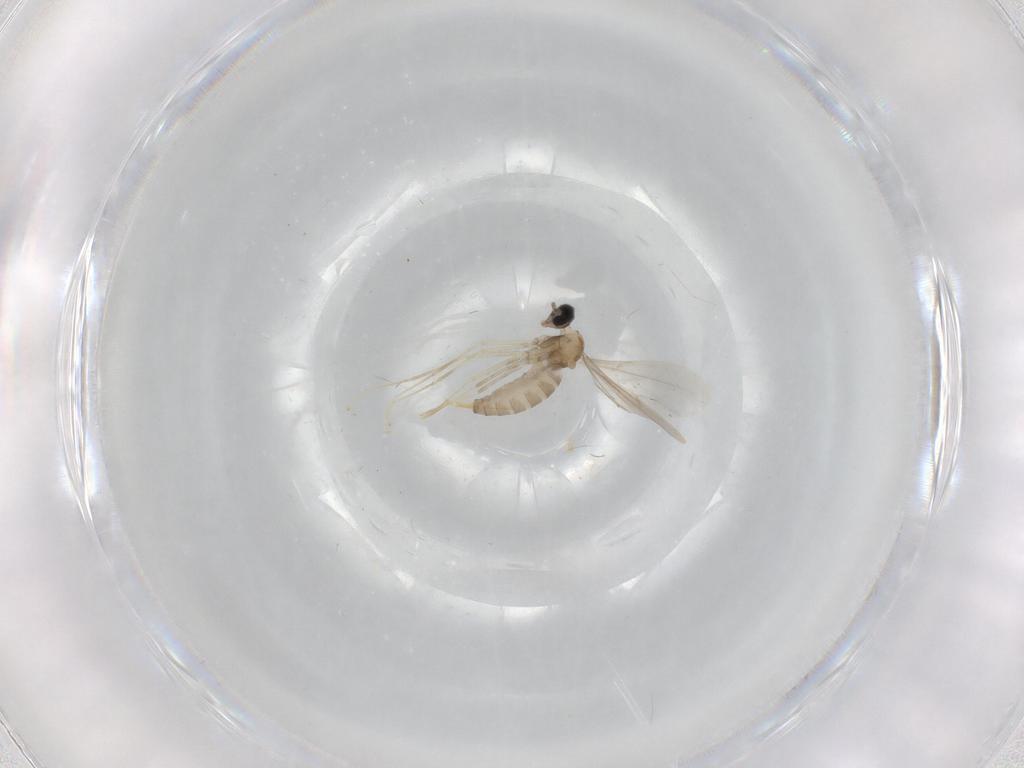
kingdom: Animalia
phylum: Arthropoda
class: Insecta
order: Diptera
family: Cecidomyiidae
